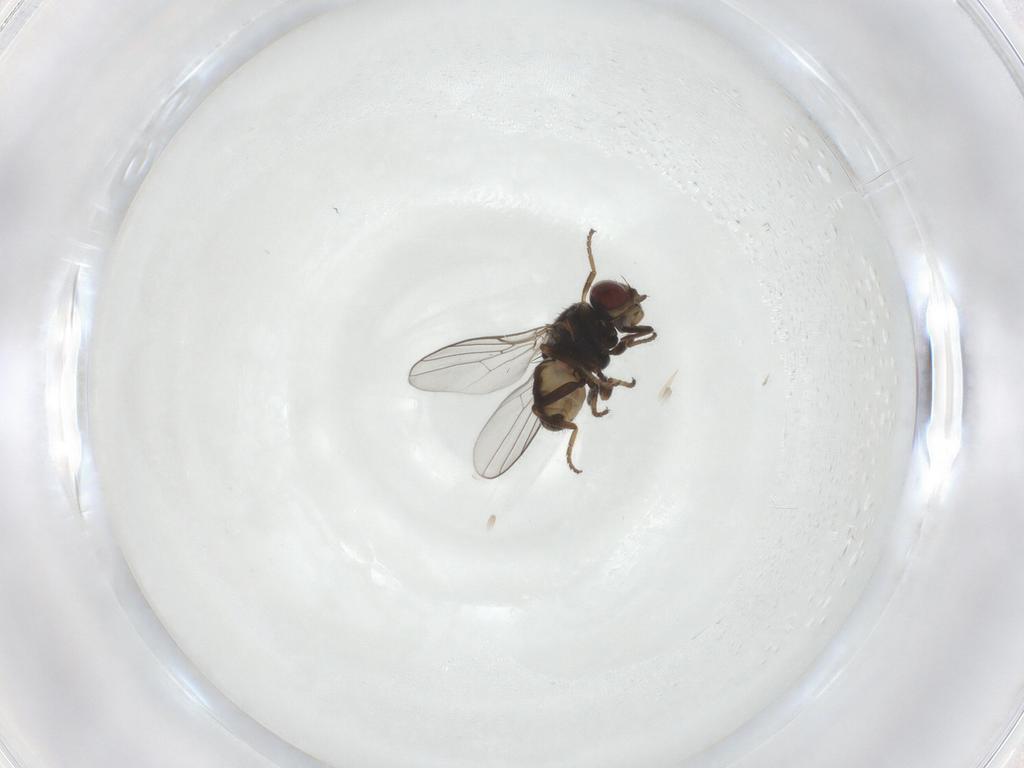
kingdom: Animalia
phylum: Arthropoda
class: Insecta
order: Diptera
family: Chloropidae
